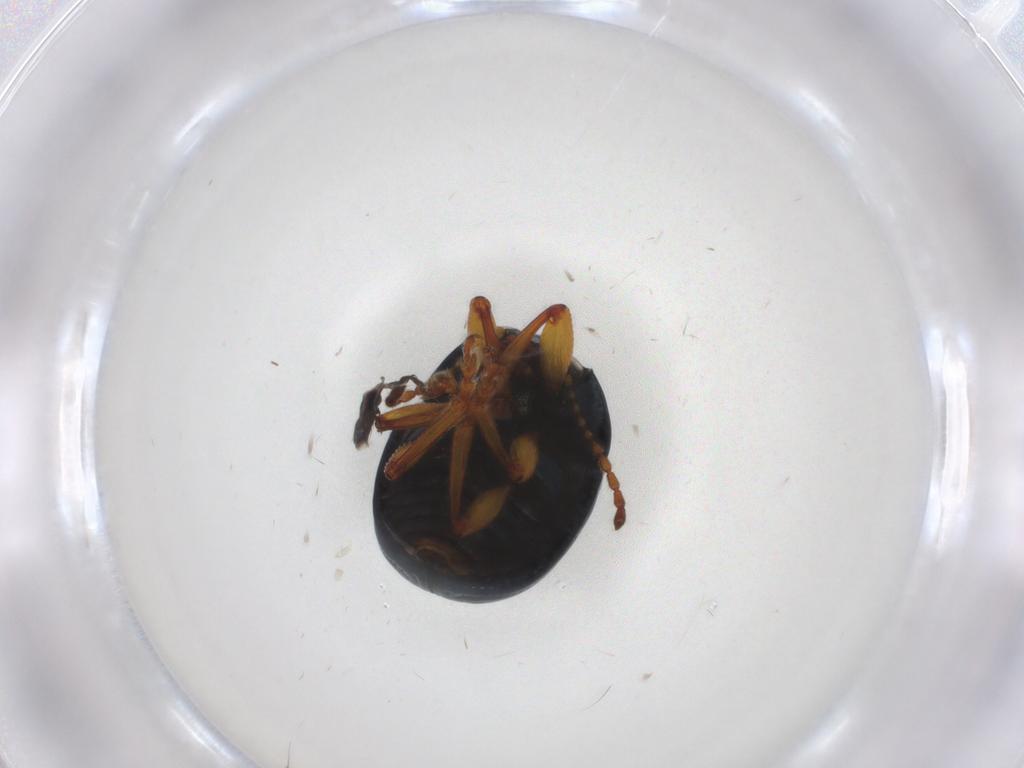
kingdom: Animalia
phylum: Arthropoda
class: Insecta
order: Coleoptera
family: Chrysomelidae
